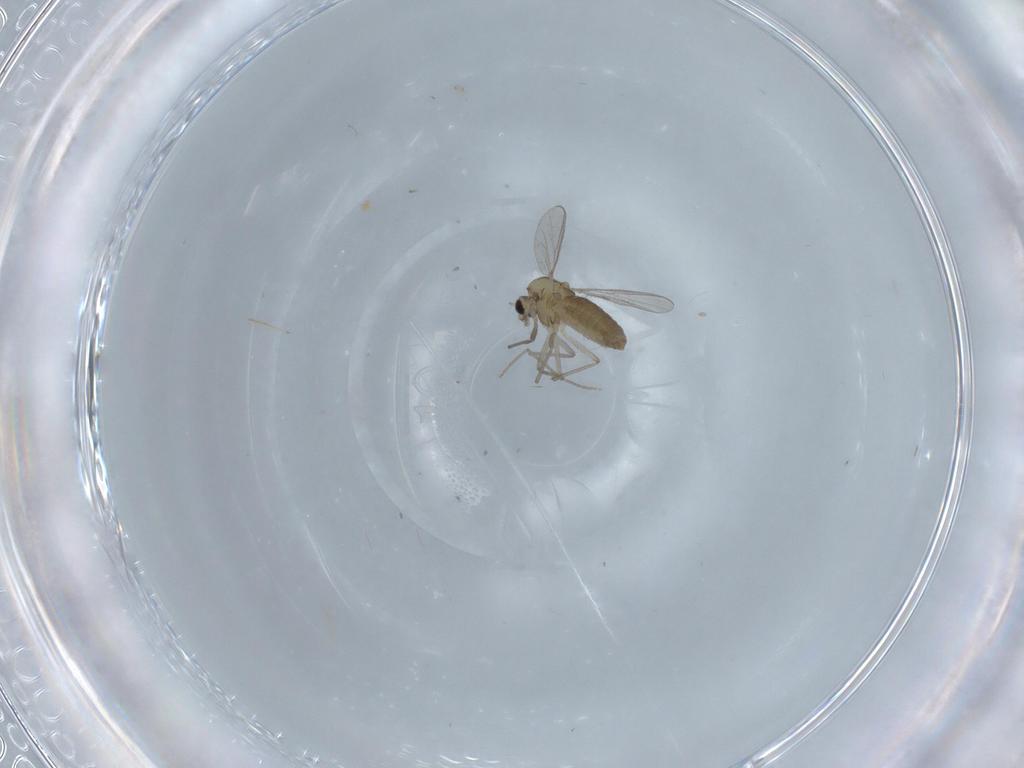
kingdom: Animalia
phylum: Arthropoda
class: Insecta
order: Diptera
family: Chironomidae
